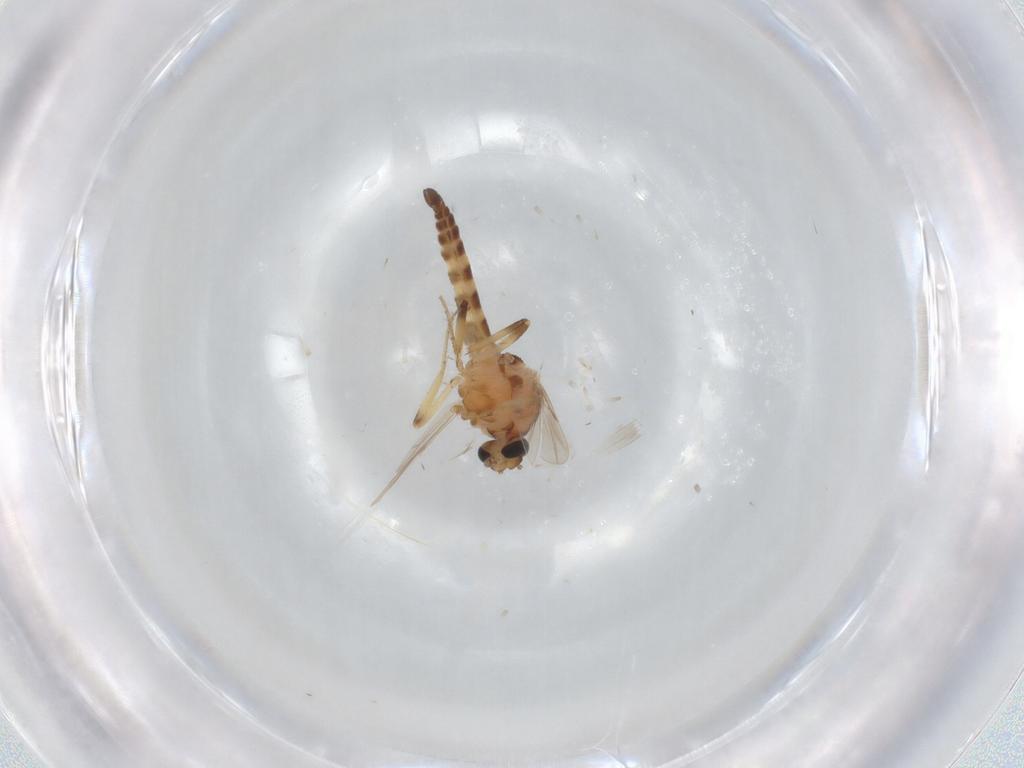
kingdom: Animalia
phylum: Arthropoda
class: Insecta
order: Diptera
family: Ceratopogonidae
